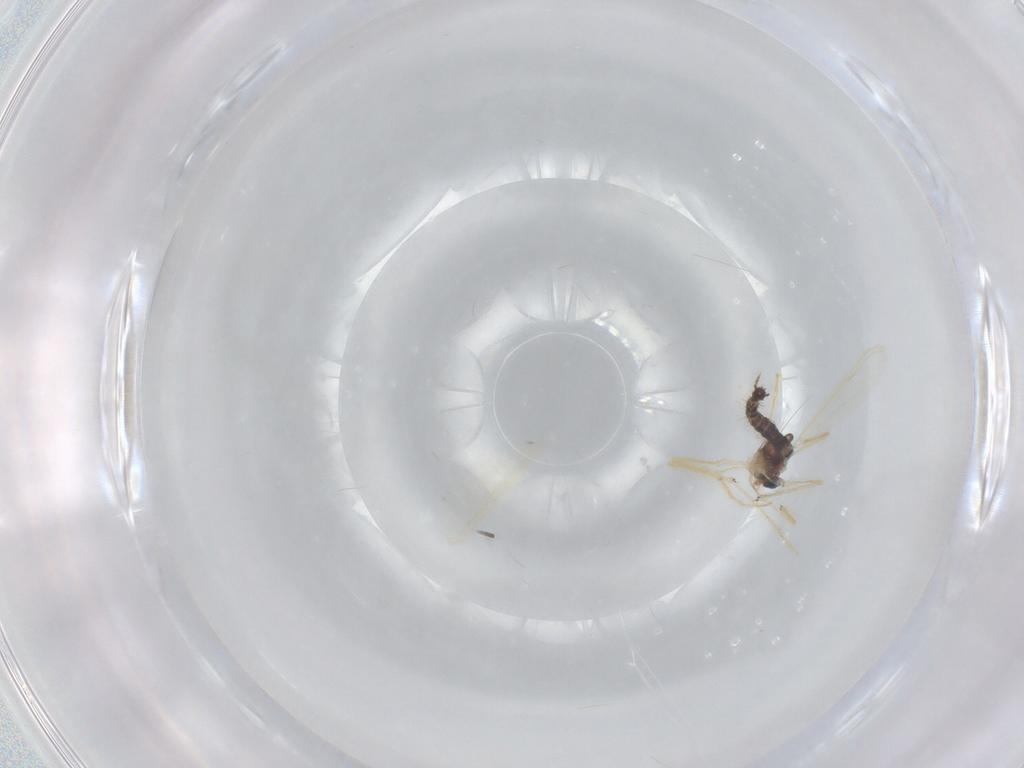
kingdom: Animalia
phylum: Arthropoda
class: Insecta
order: Diptera
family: Chironomidae
